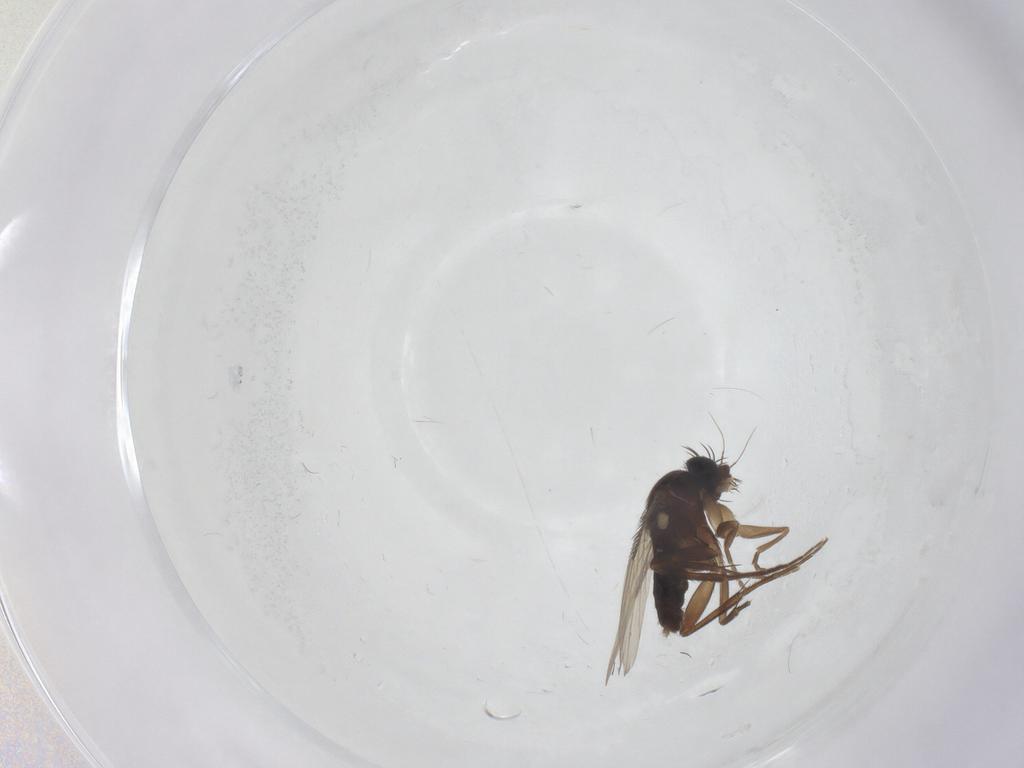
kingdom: Animalia
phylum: Arthropoda
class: Insecta
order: Diptera
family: Phoridae
